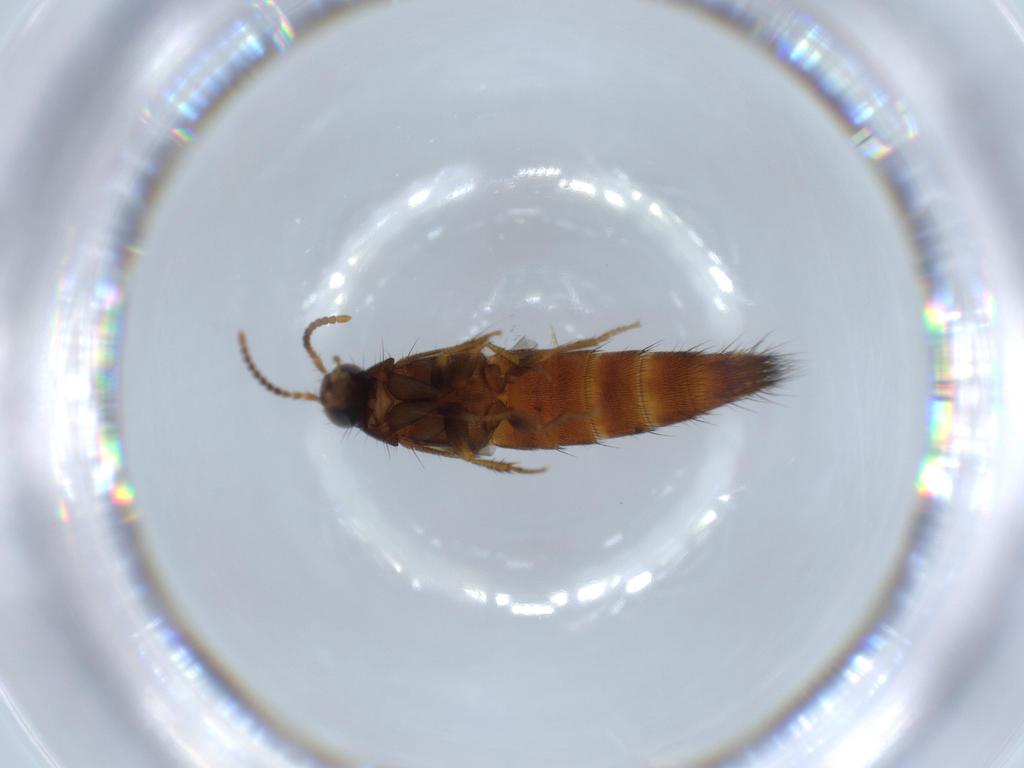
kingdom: Animalia
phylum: Arthropoda
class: Insecta
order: Coleoptera
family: Staphylinidae
